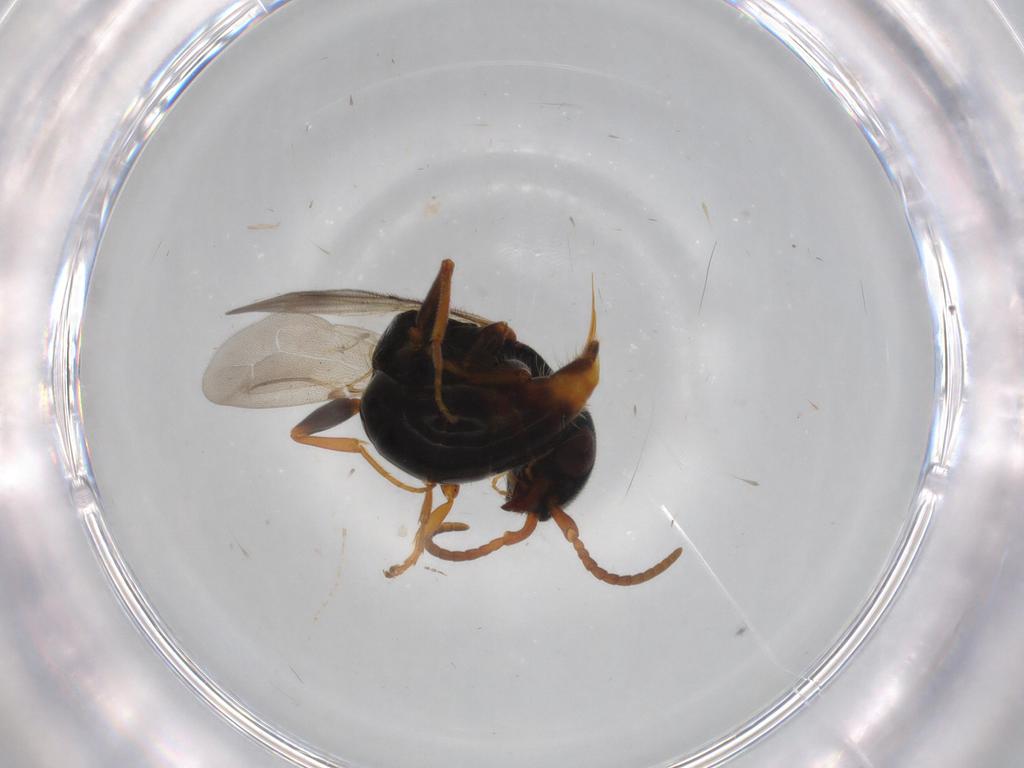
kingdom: Animalia
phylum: Arthropoda
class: Insecta
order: Hymenoptera
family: Bethylidae
